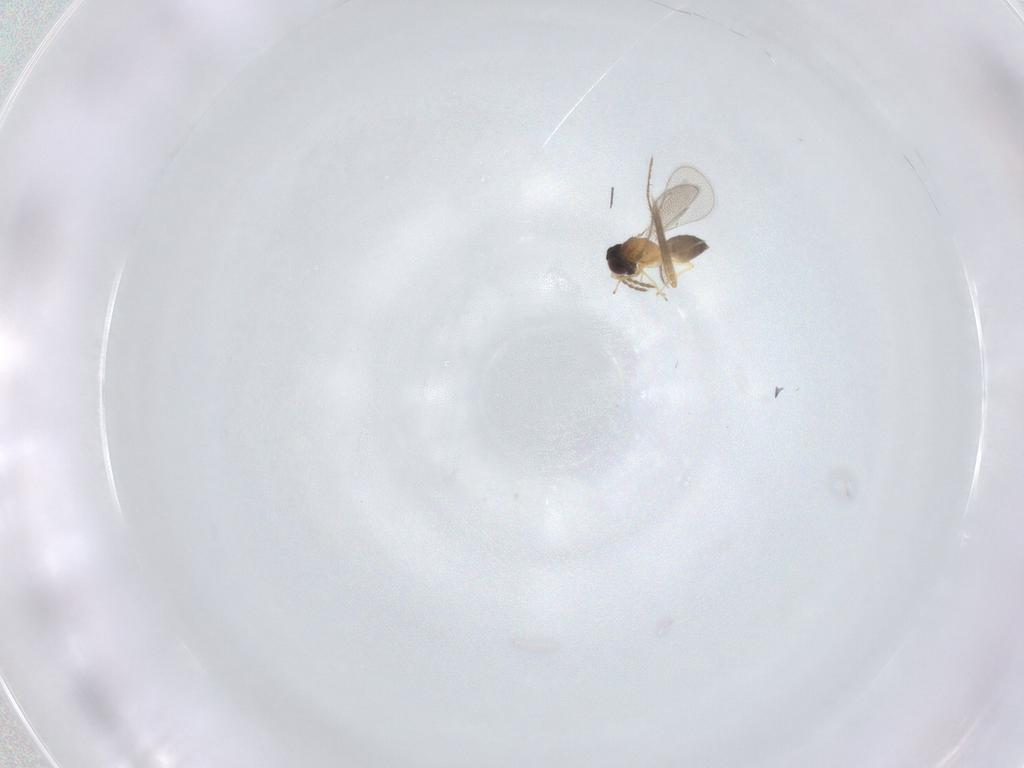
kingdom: Animalia
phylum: Arthropoda
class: Insecta
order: Hymenoptera
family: Eulophidae
